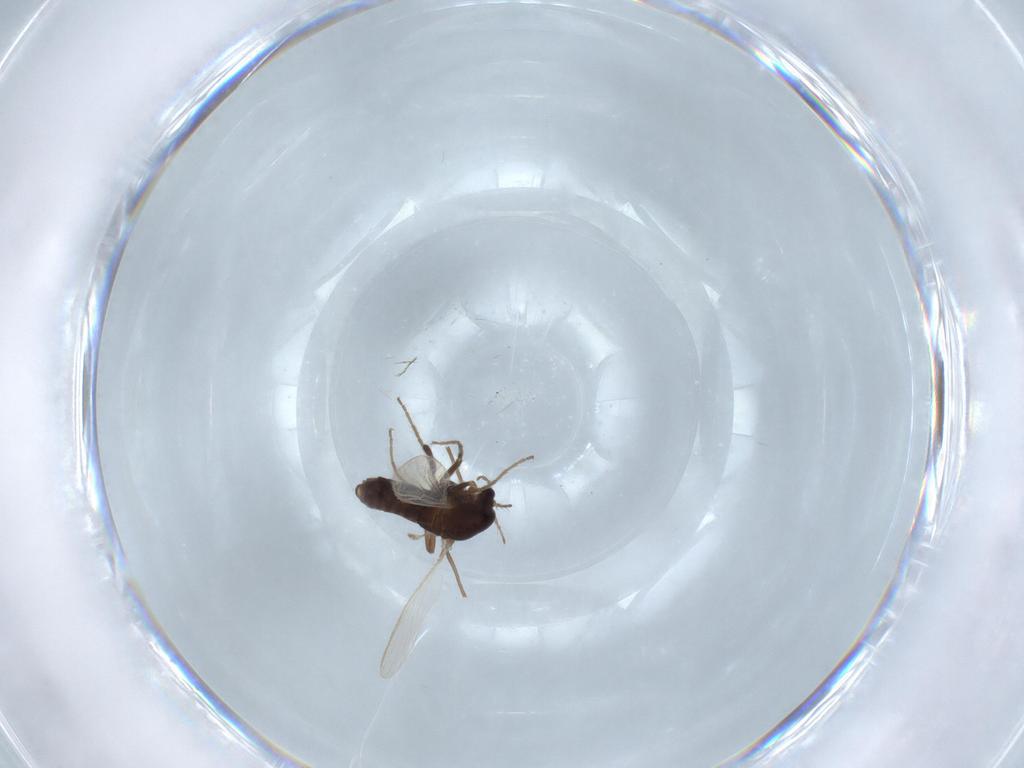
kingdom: Animalia
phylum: Arthropoda
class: Insecta
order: Diptera
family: Chironomidae
